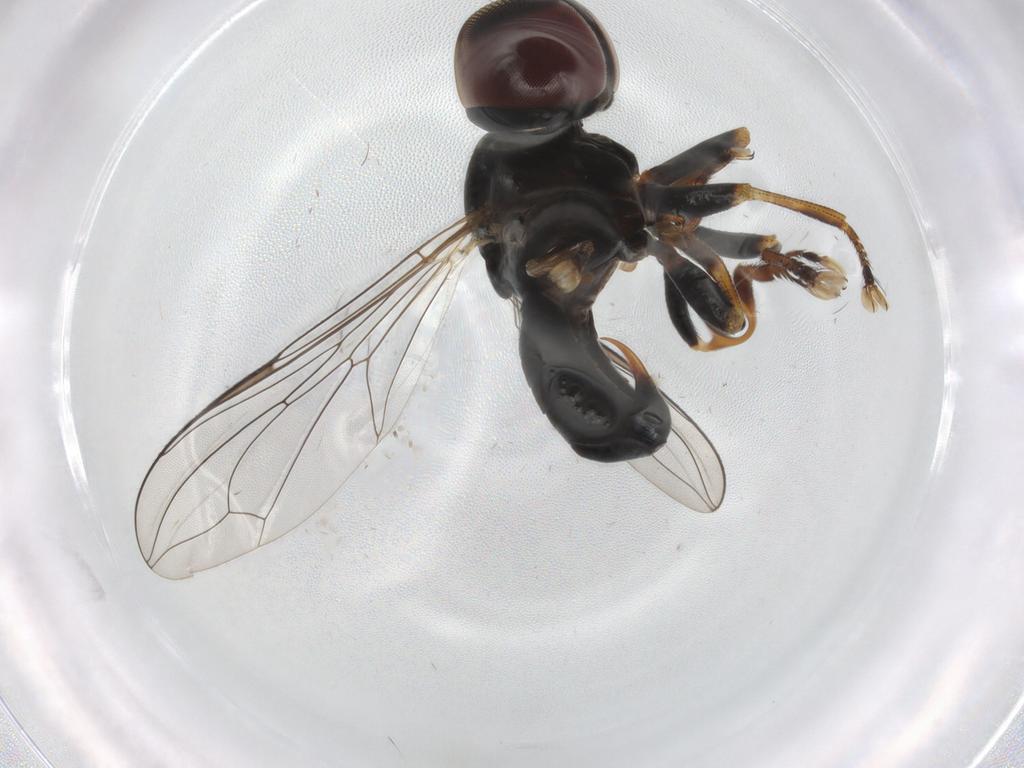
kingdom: Animalia
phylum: Arthropoda
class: Insecta
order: Diptera
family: Pipunculidae
